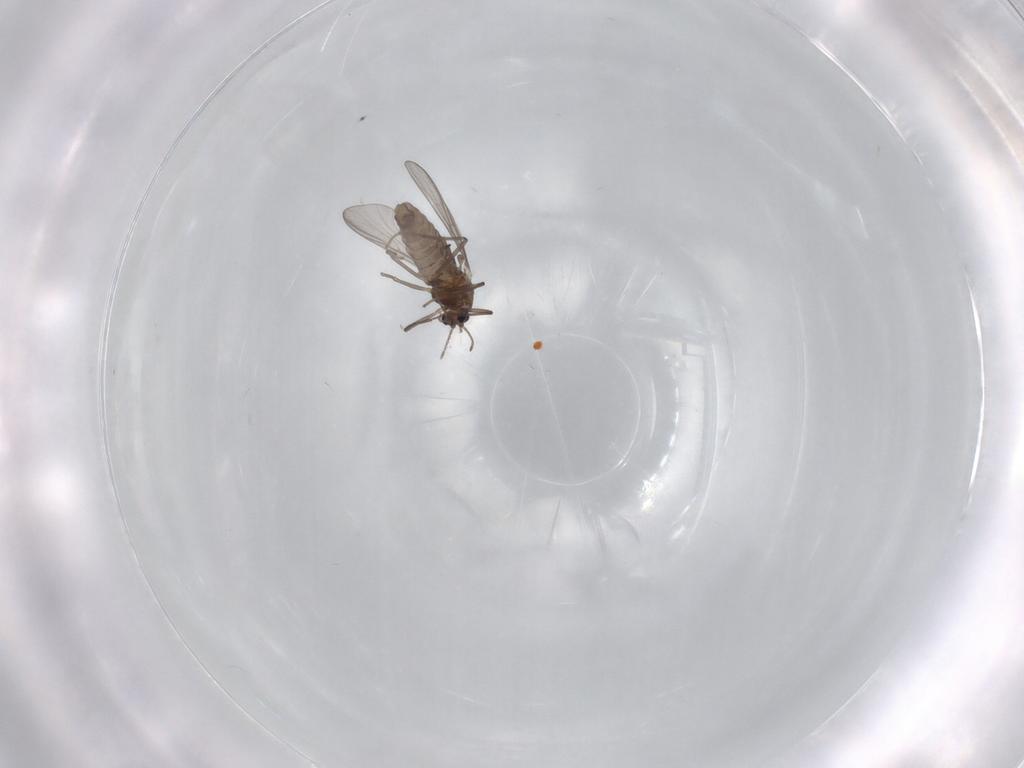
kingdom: Animalia
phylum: Arthropoda
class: Insecta
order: Diptera
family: Chironomidae
